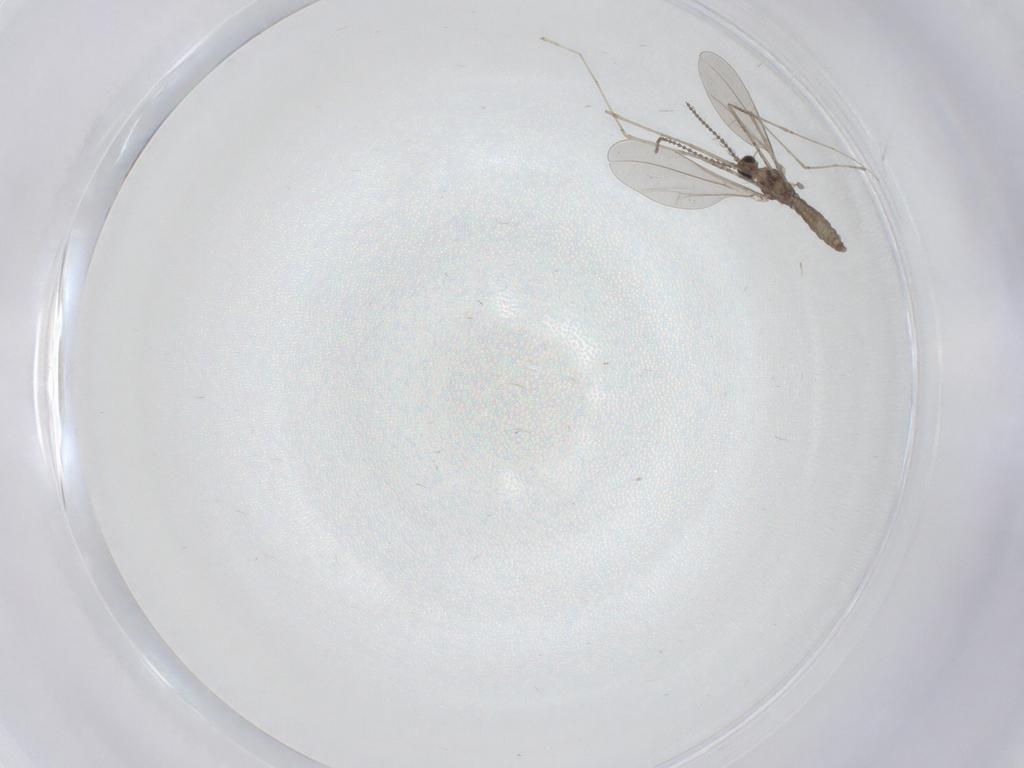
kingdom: Animalia
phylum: Arthropoda
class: Insecta
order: Diptera
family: Cecidomyiidae
